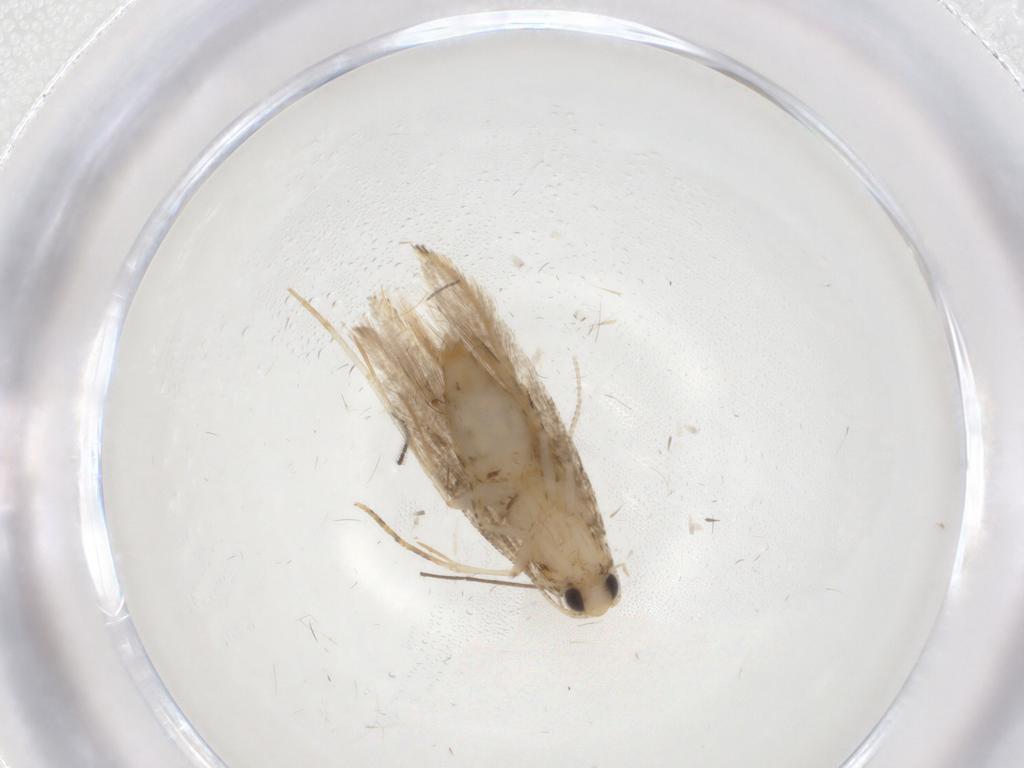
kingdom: Animalia
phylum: Arthropoda
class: Insecta
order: Lepidoptera
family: Tineidae
